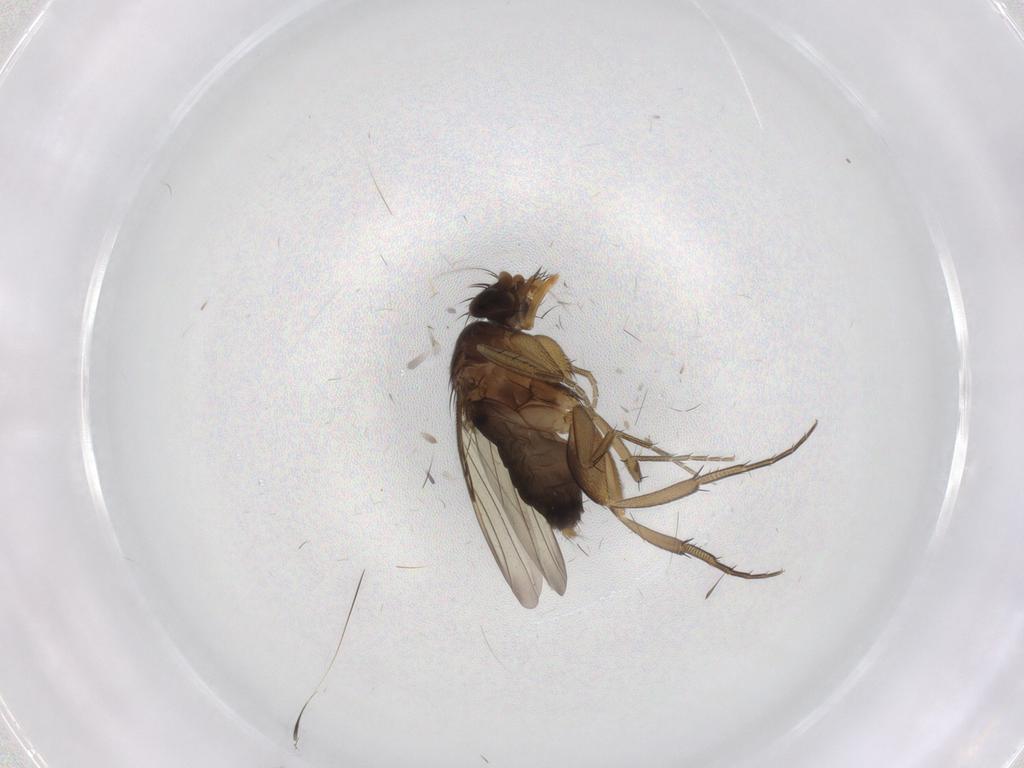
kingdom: Animalia
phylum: Arthropoda
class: Insecta
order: Diptera
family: Phoridae
